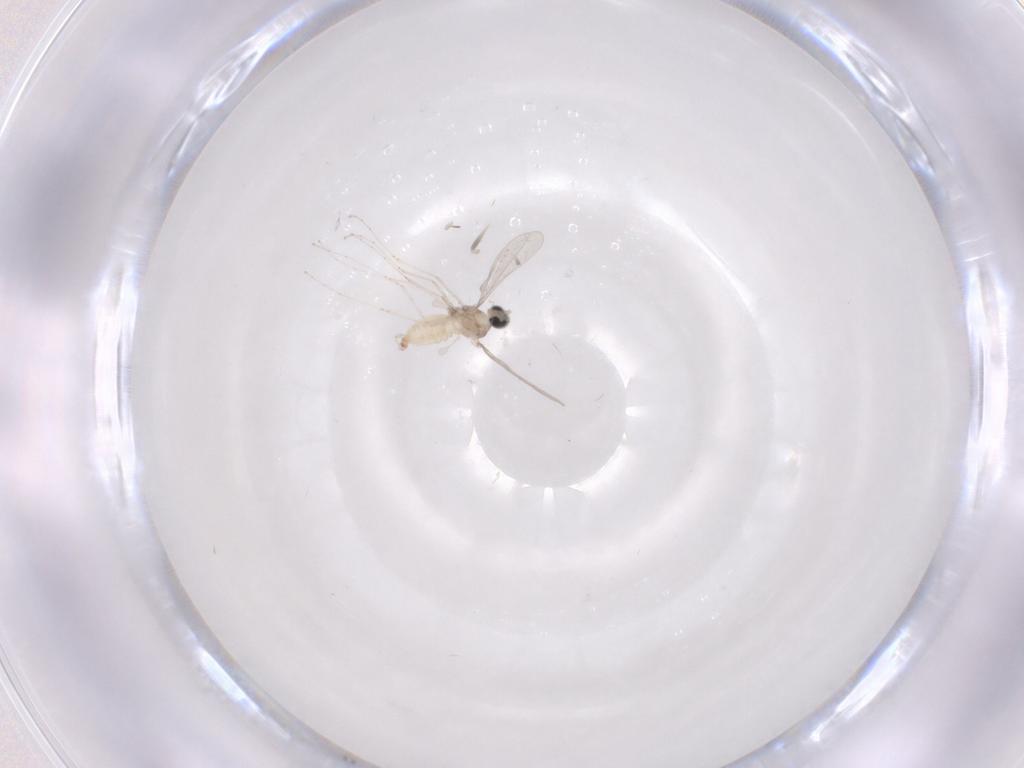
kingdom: Animalia
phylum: Arthropoda
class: Insecta
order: Diptera
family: Cecidomyiidae
